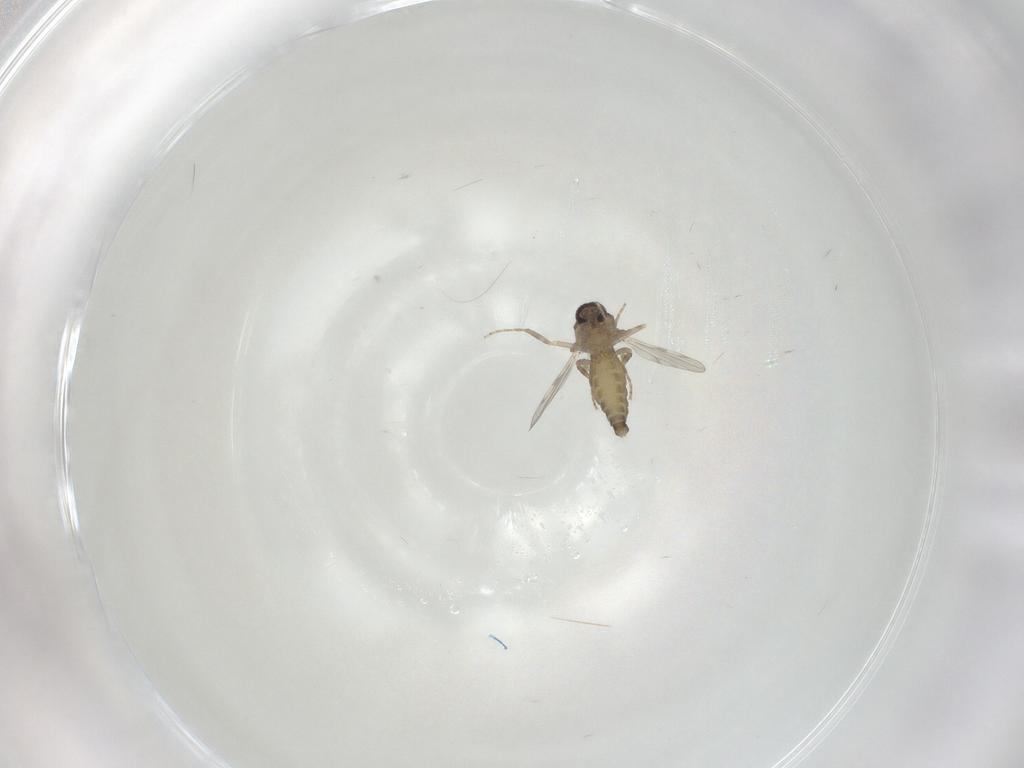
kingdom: Animalia
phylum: Arthropoda
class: Insecta
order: Diptera
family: Ceratopogonidae
